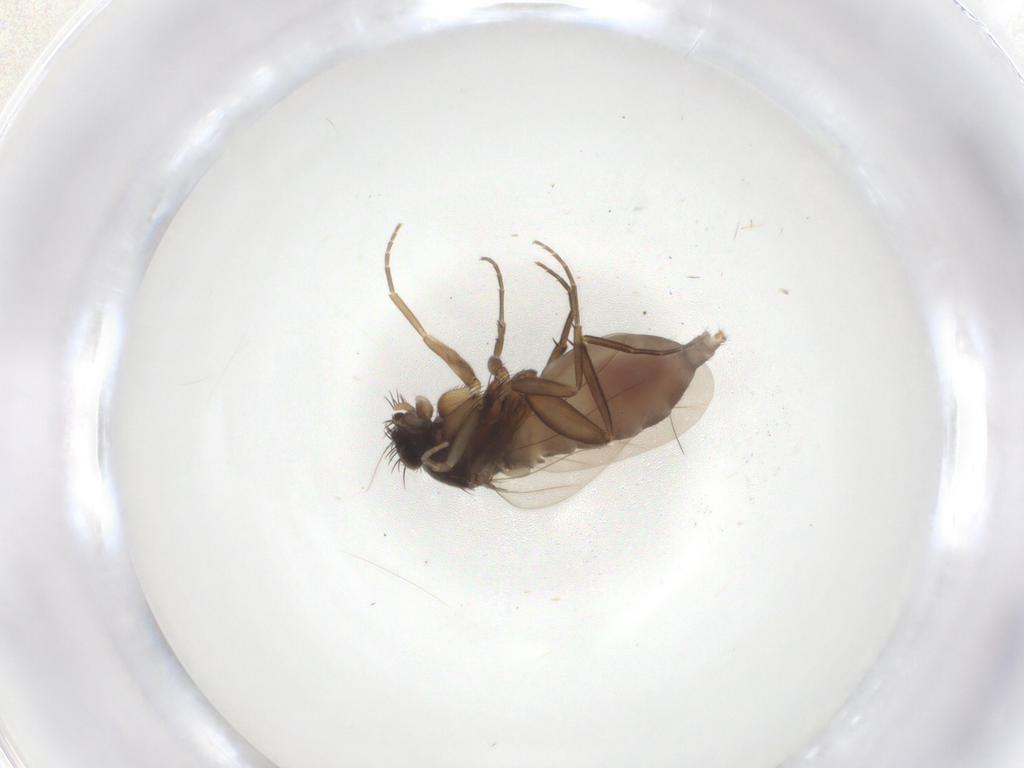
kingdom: Animalia
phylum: Arthropoda
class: Insecta
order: Diptera
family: Phoridae
